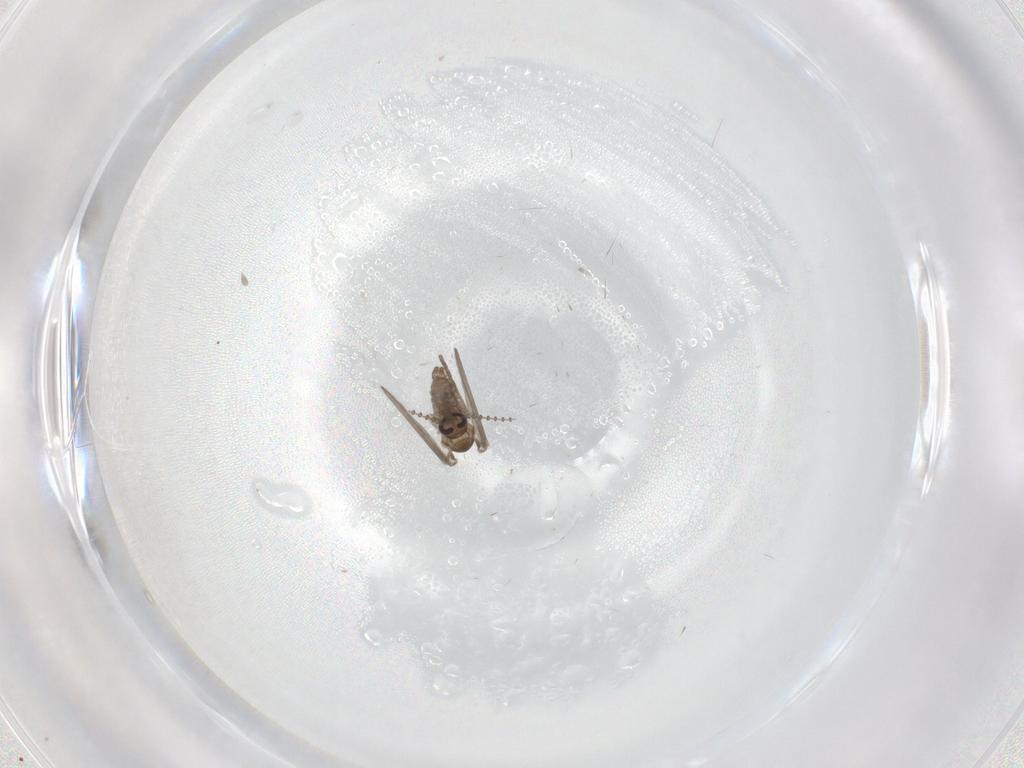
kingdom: Animalia
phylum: Arthropoda
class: Insecta
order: Diptera
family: Psychodidae
